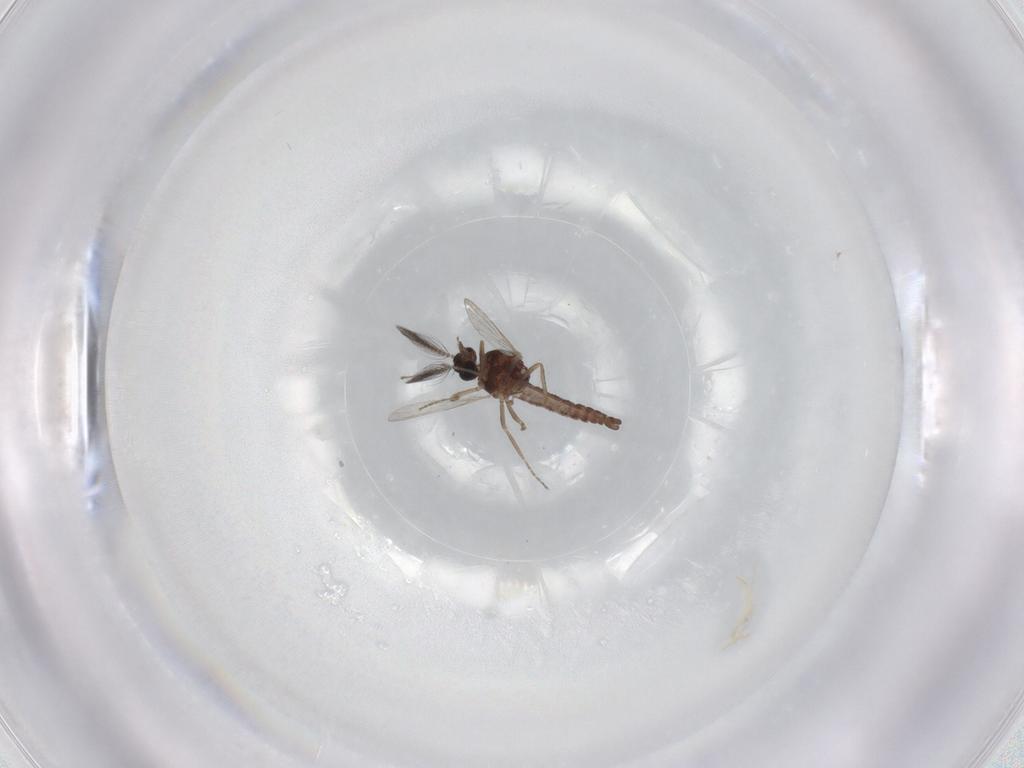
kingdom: Animalia
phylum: Arthropoda
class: Insecta
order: Diptera
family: Ceratopogonidae
